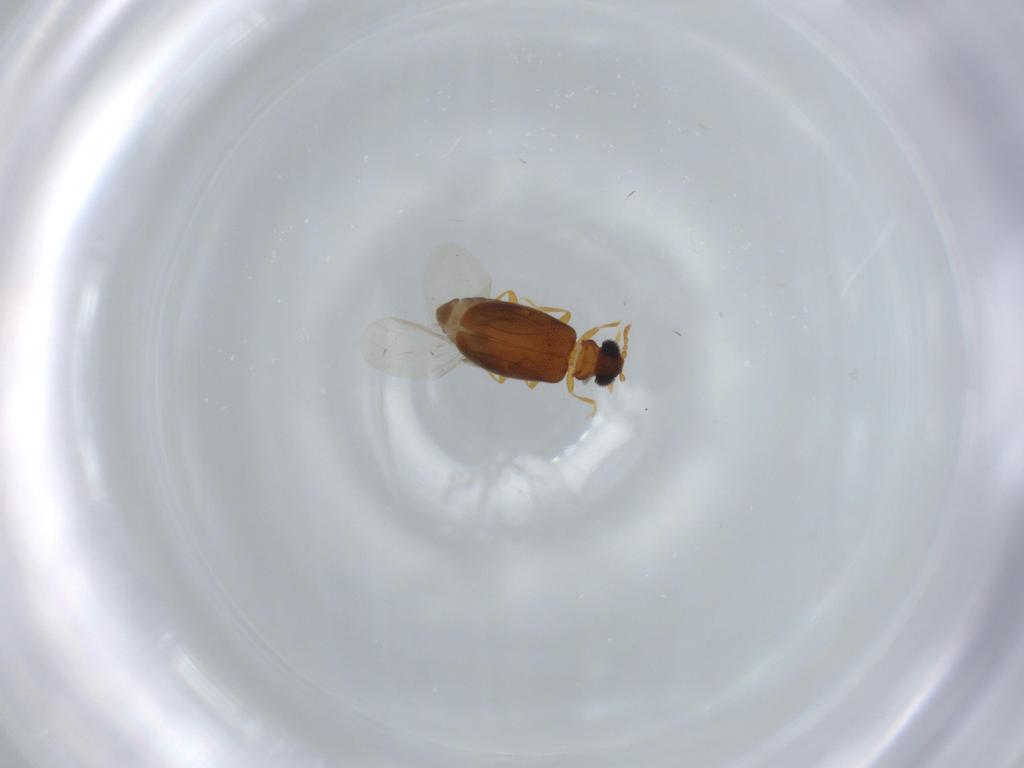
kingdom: Animalia
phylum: Arthropoda
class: Insecta
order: Coleoptera
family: Aderidae
